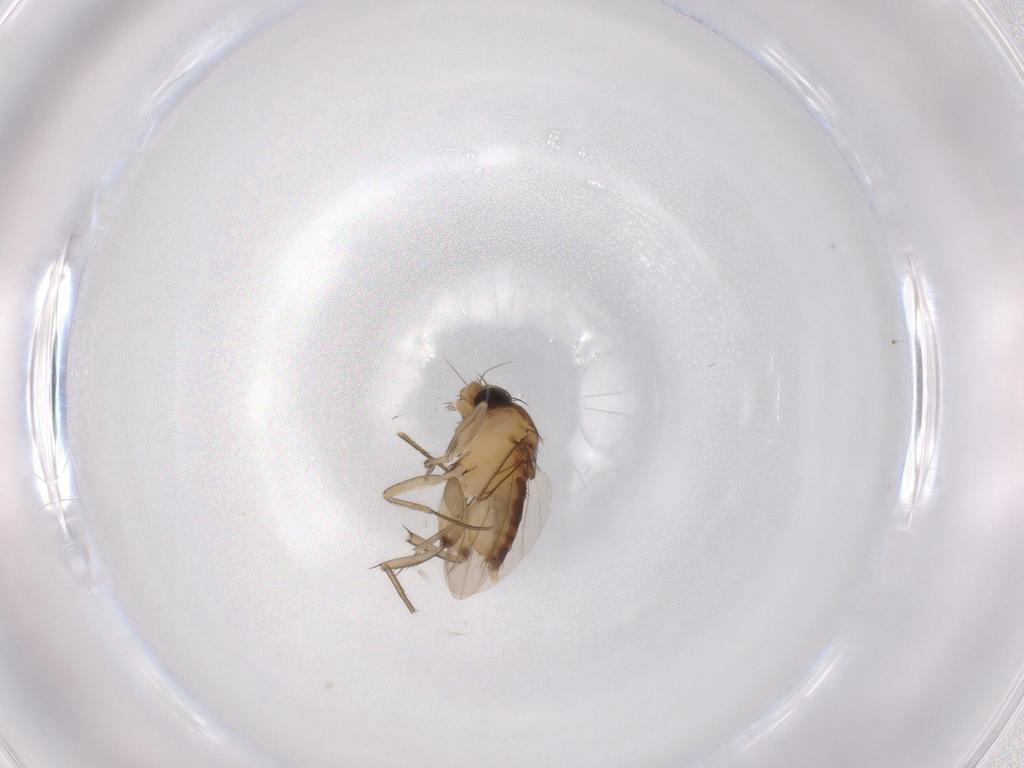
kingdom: Animalia
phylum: Arthropoda
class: Insecta
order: Diptera
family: Phoridae
